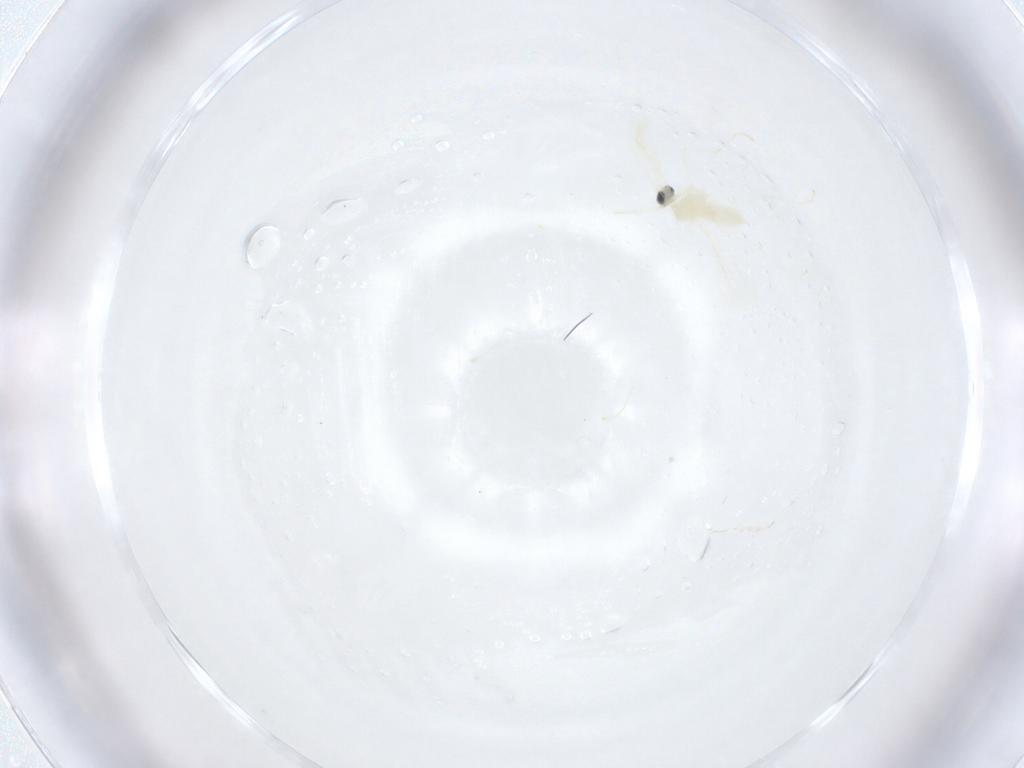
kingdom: Animalia
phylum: Arthropoda
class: Insecta
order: Diptera
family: Cecidomyiidae
